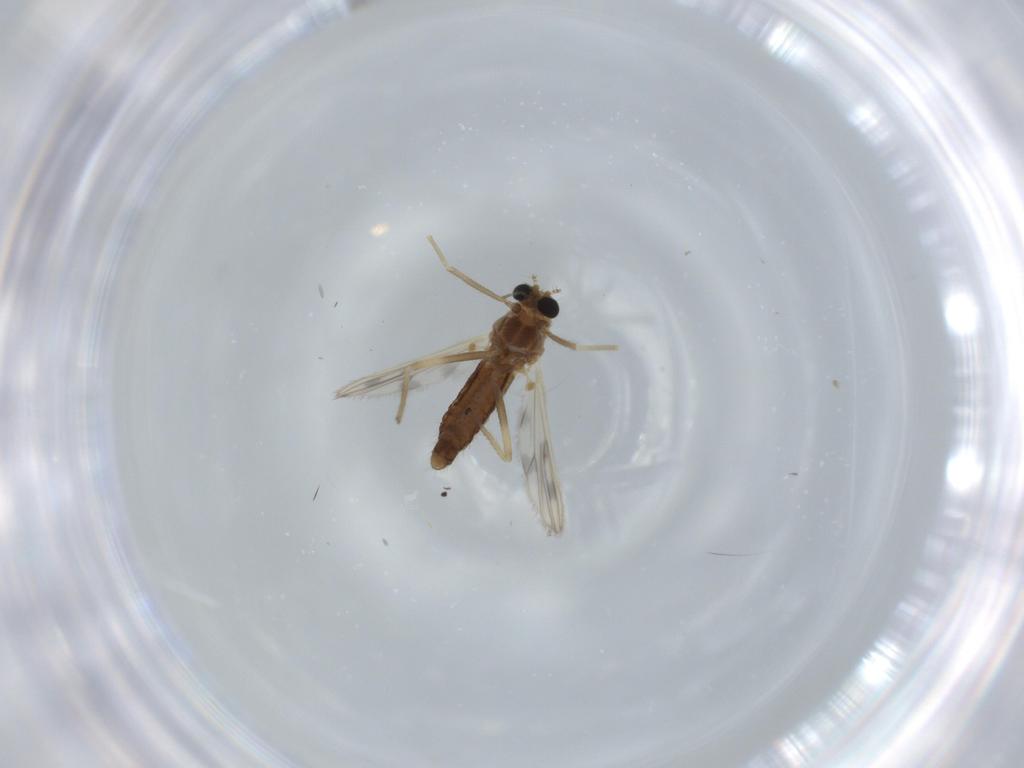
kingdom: Animalia
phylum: Arthropoda
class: Insecta
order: Diptera
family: Chironomidae
